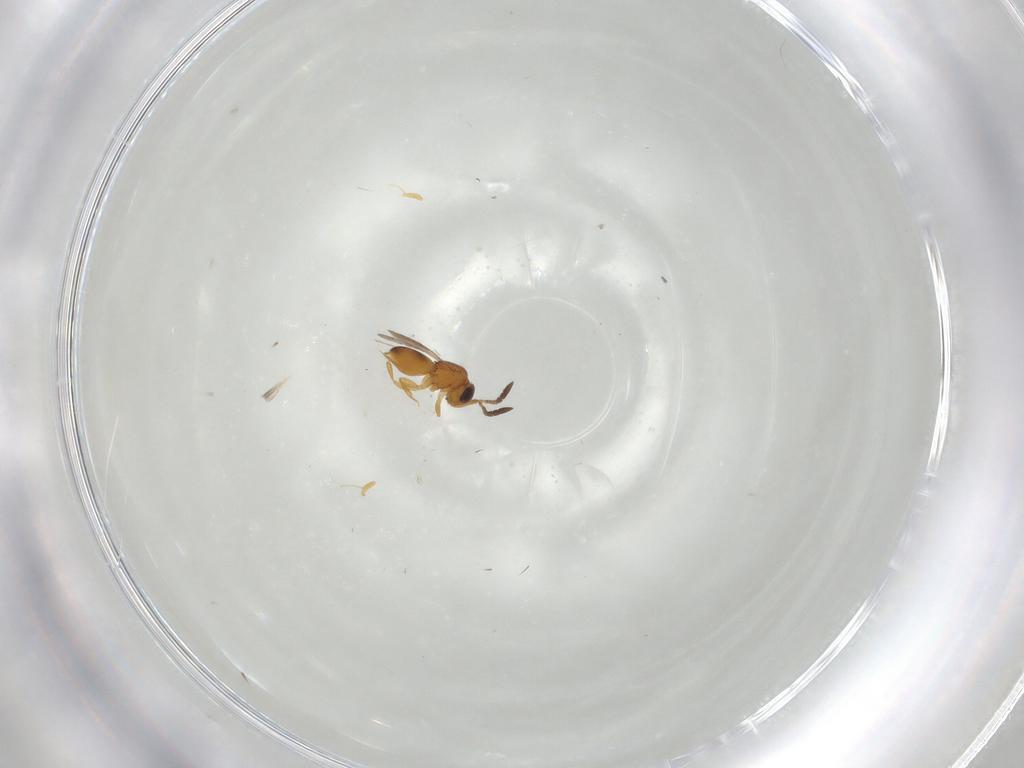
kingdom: Animalia
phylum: Arthropoda
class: Insecta
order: Hymenoptera
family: Ceraphronidae
